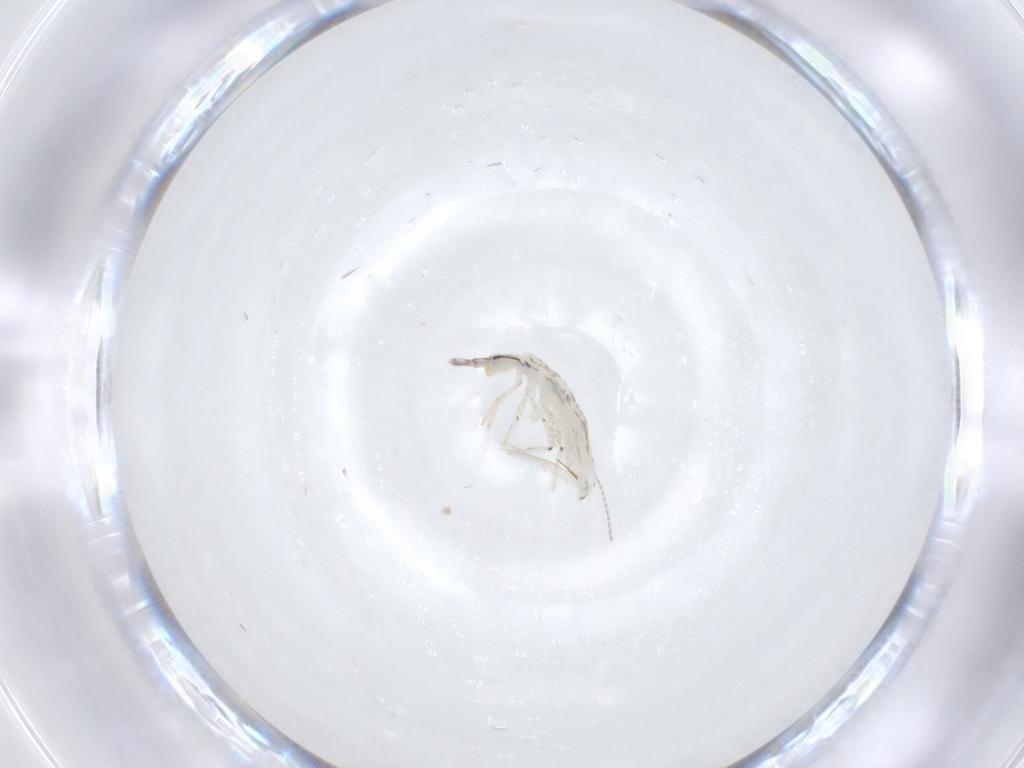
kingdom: Animalia
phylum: Arthropoda
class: Collembola
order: Entomobryomorpha
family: Entomobryidae
